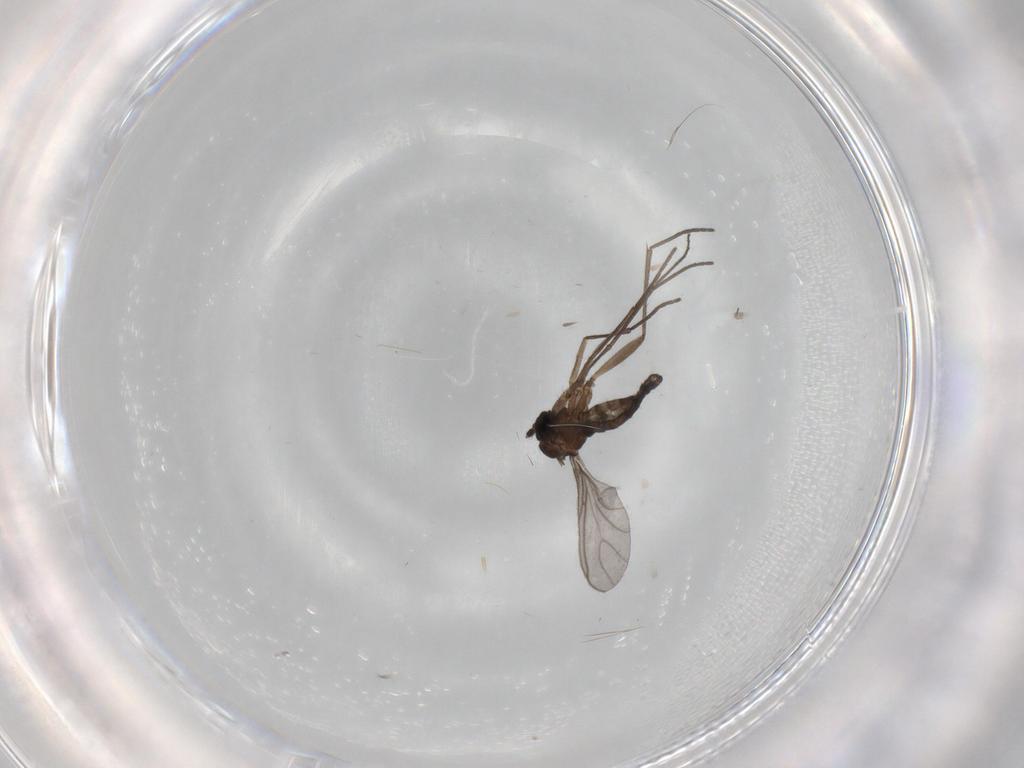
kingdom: Animalia
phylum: Arthropoda
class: Insecta
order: Diptera
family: Sciaridae
